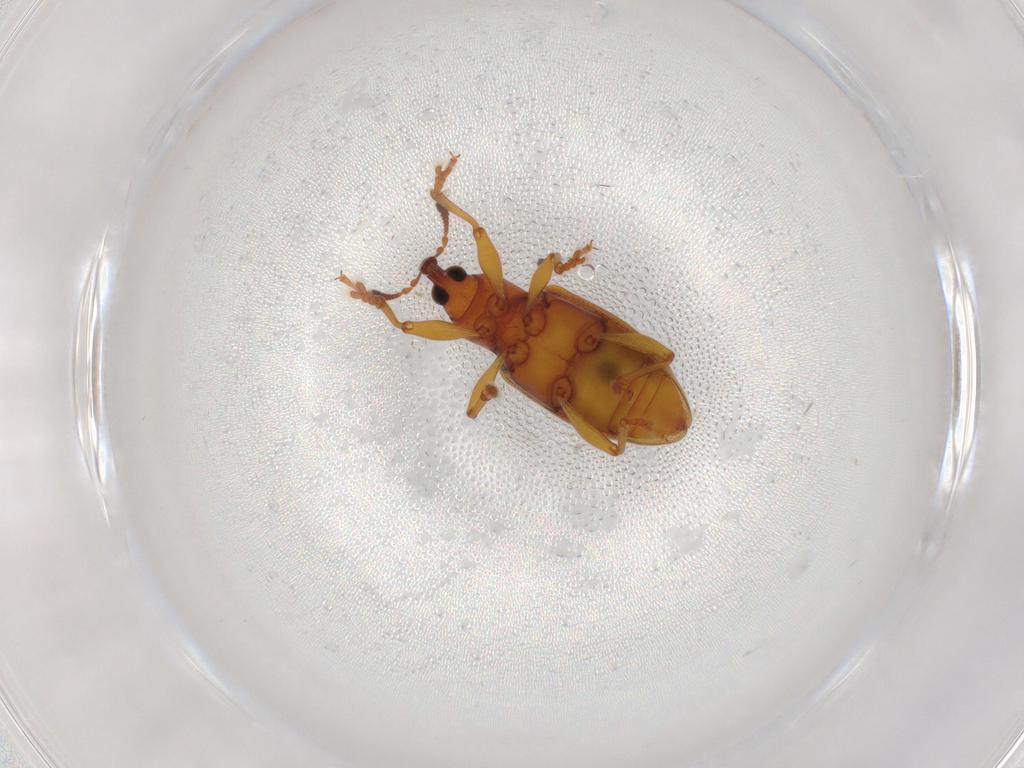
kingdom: Animalia
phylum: Arthropoda
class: Insecta
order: Coleoptera
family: Curculionidae
